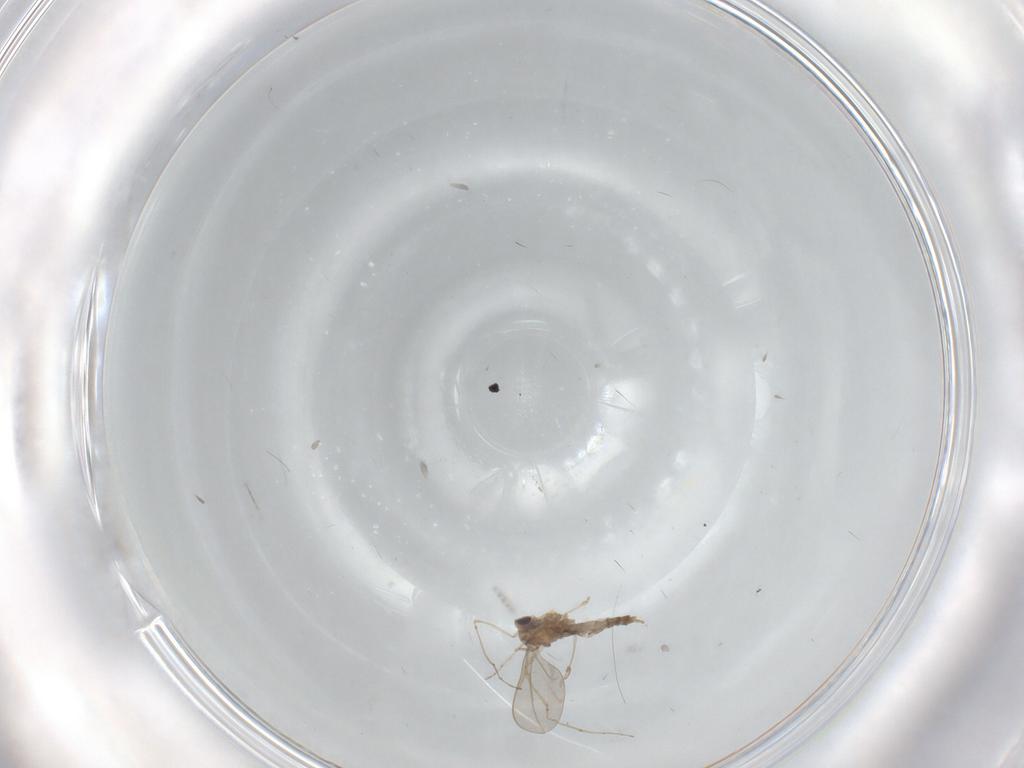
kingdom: Animalia
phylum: Arthropoda
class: Insecta
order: Diptera
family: Cecidomyiidae
